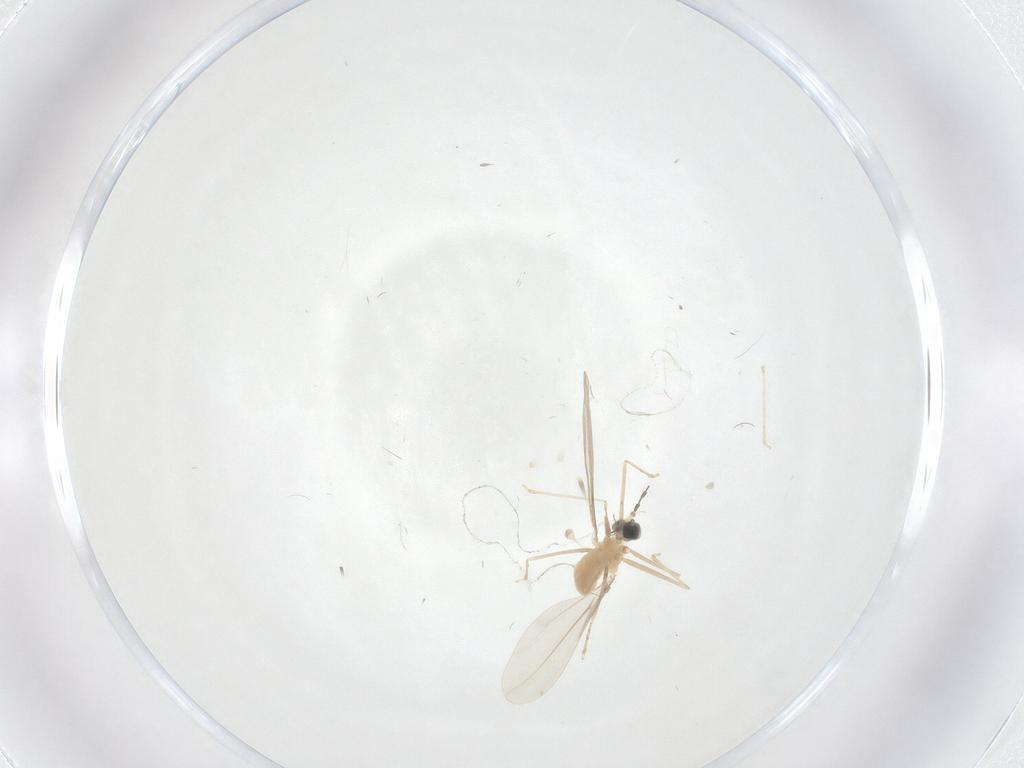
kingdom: Animalia
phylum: Arthropoda
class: Insecta
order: Diptera
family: Cecidomyiidae
